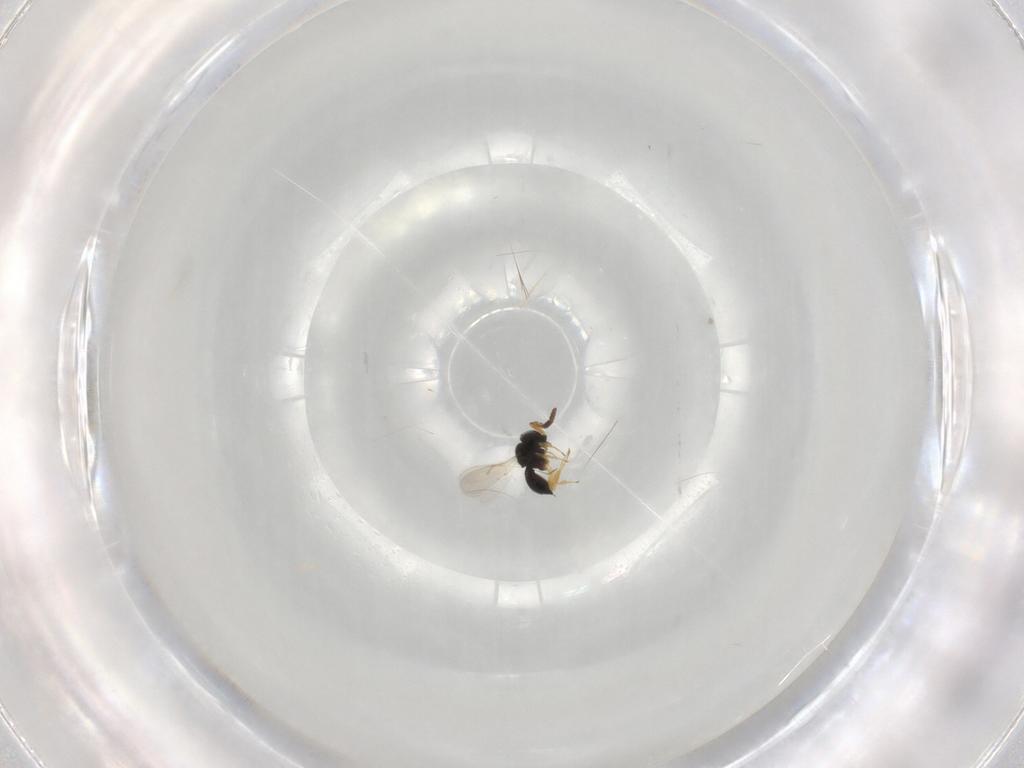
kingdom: Animalia
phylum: Arthropoda
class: Insecta
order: Hymenoptera
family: Scelionidae
